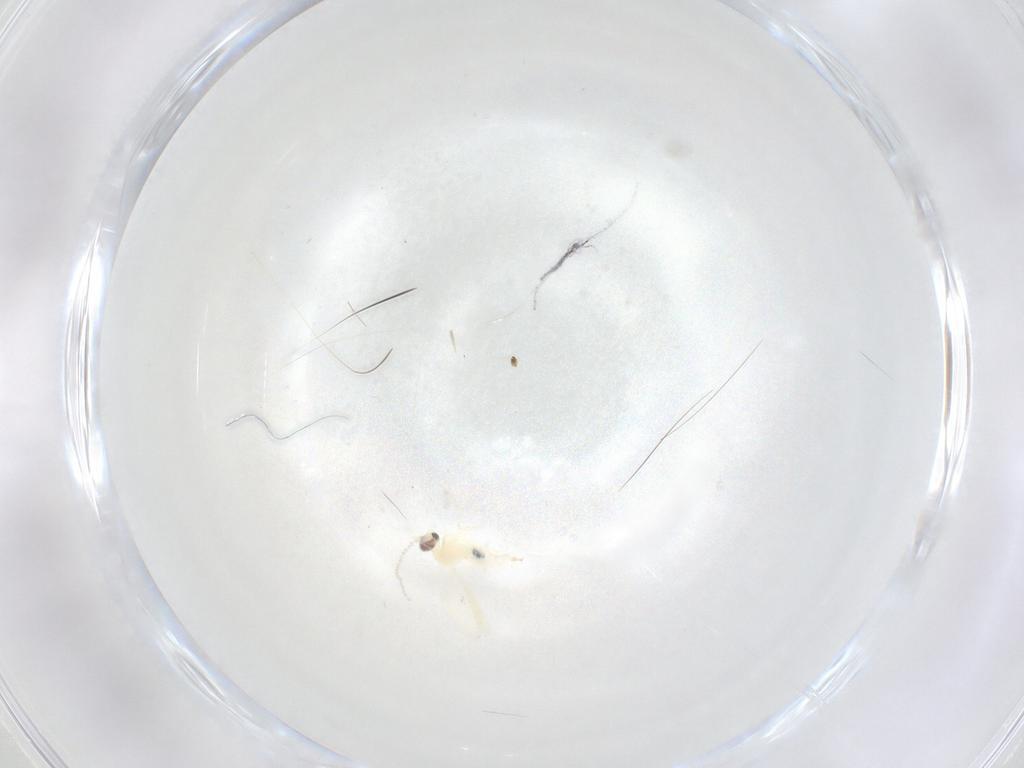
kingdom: Animalia
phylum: Arthropoda
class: Insecta
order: Diptera
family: Cecidomyiidae
